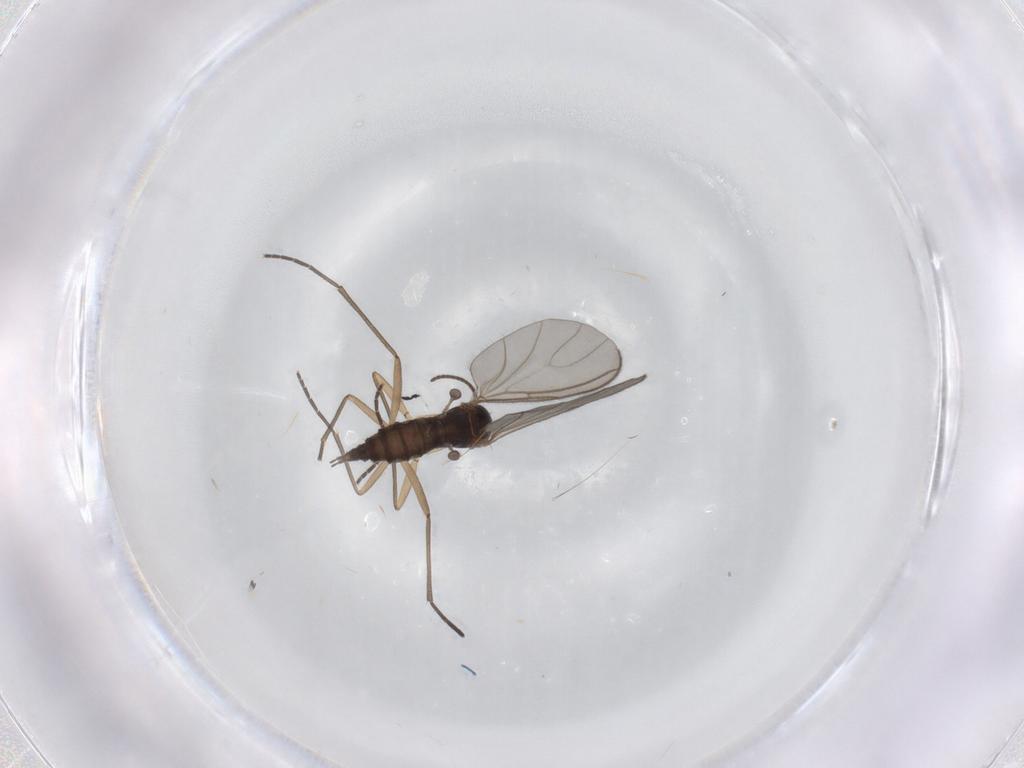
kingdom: Animalia
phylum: Arthropoda
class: Insecta
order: Diptera
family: Sciaridae
